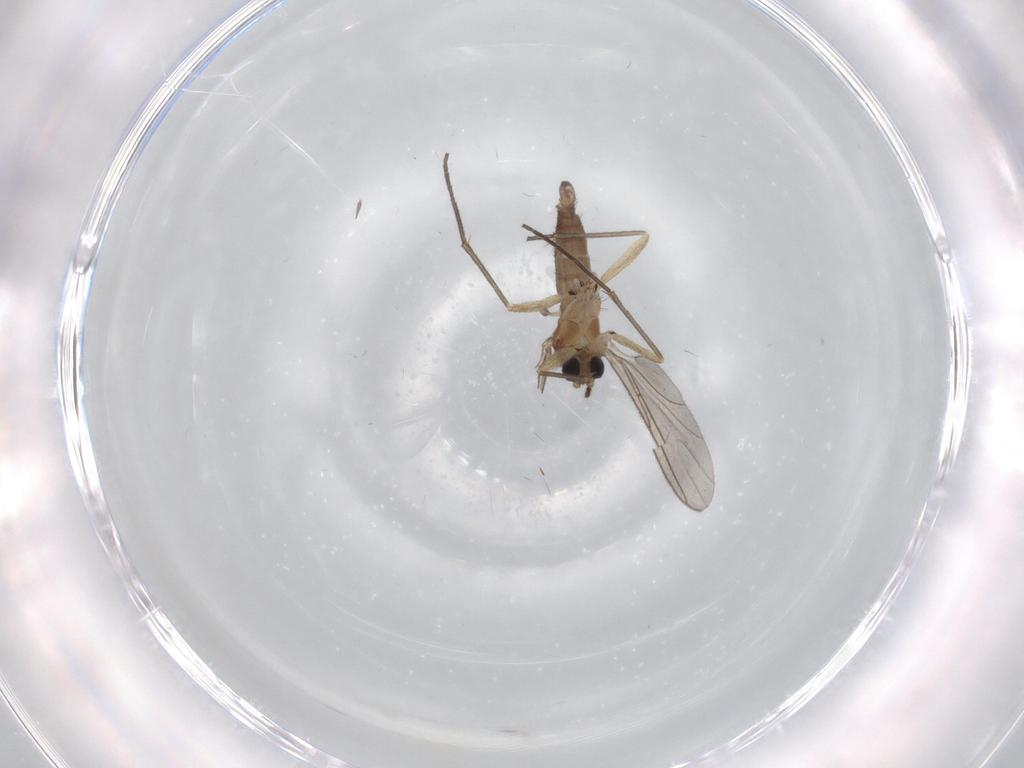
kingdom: Animalia
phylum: Arthropoda
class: Insecta
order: Diptera
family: Sciaridae
